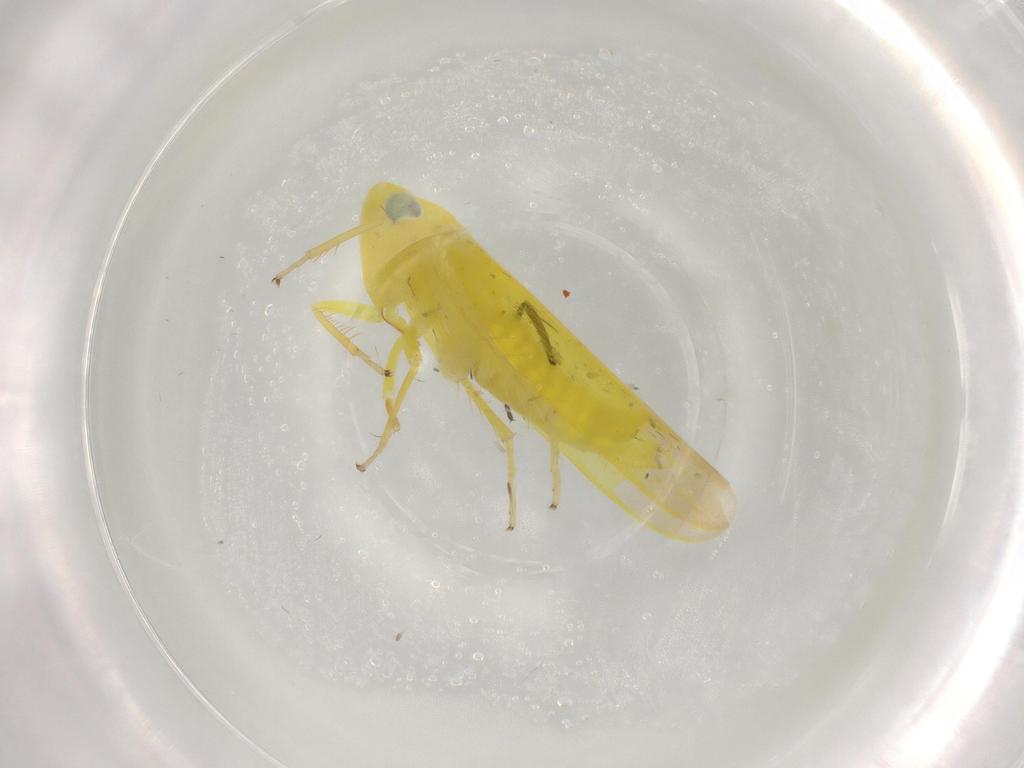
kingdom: Animalia
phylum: Arthropoda
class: Insecta
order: Hemiptera
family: Cicadellidae
